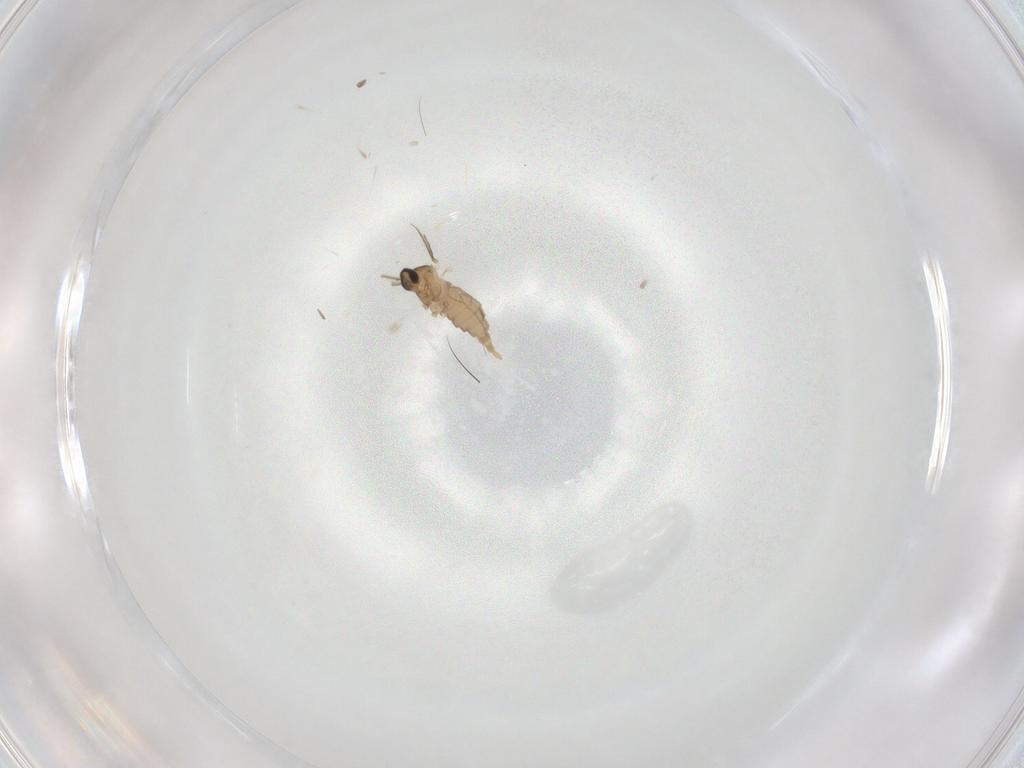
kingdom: Animalia
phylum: Arthropoda
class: Insecta
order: Diptera
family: Cecidomyiidae
